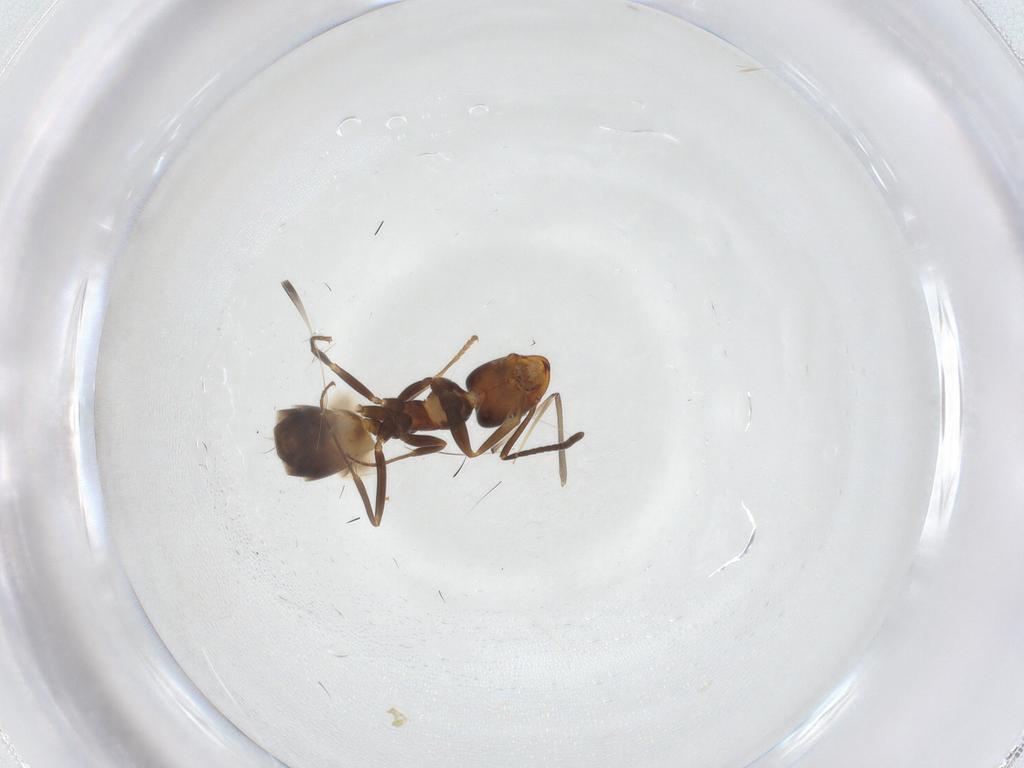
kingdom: Animalia
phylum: Arthropoda
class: Insecta
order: Hymenoptera
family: Formicidae
